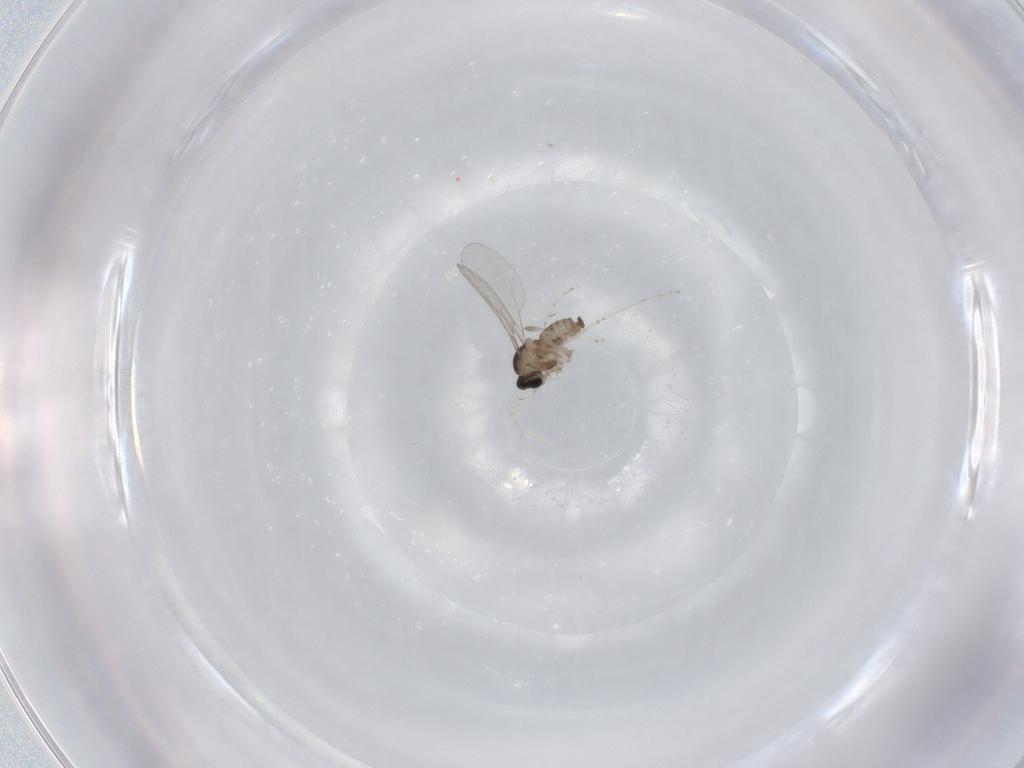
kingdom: Animalia
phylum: Arthropoda
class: Insecta
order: Diptera
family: Cecidomyiidae
